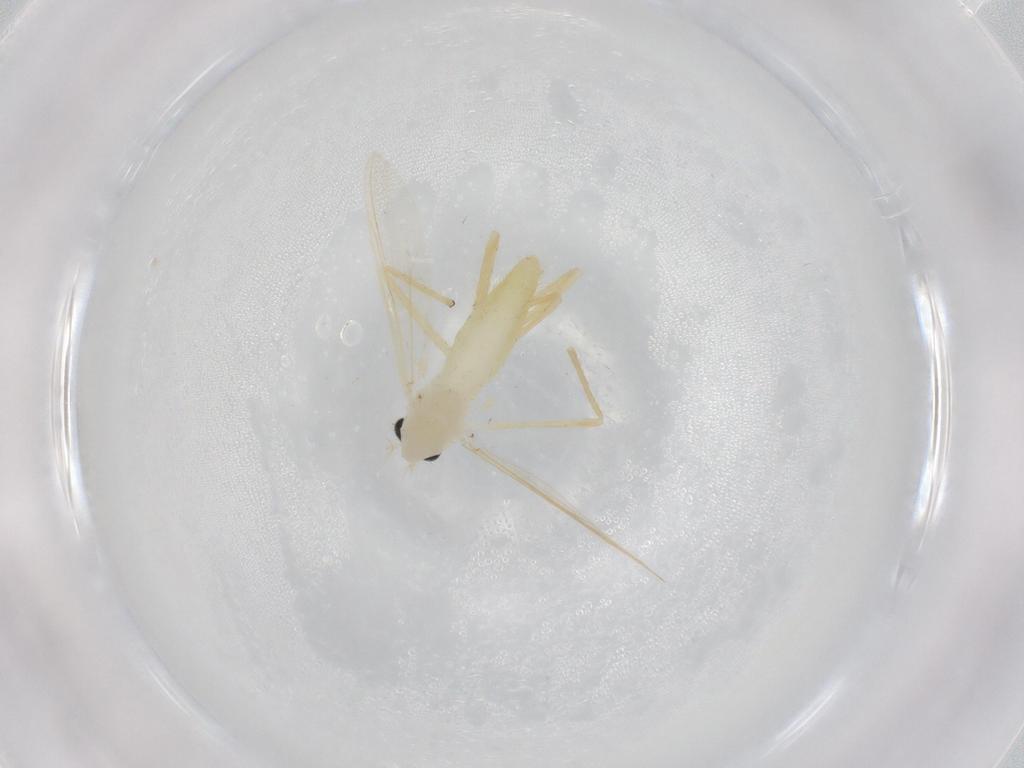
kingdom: Animalia
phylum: Arthropoda
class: Insecta
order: Diptera
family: Chironomidae
